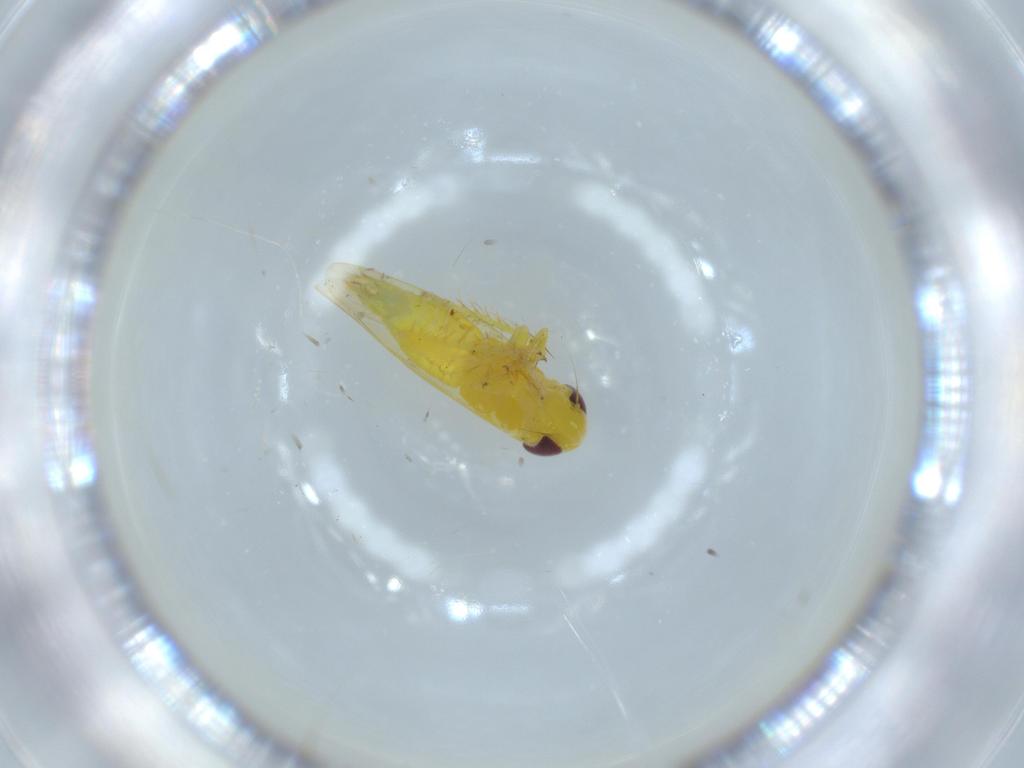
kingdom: Animalia
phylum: Arthropoda
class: Insecta
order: Hemiptera
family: Cicadellidae
